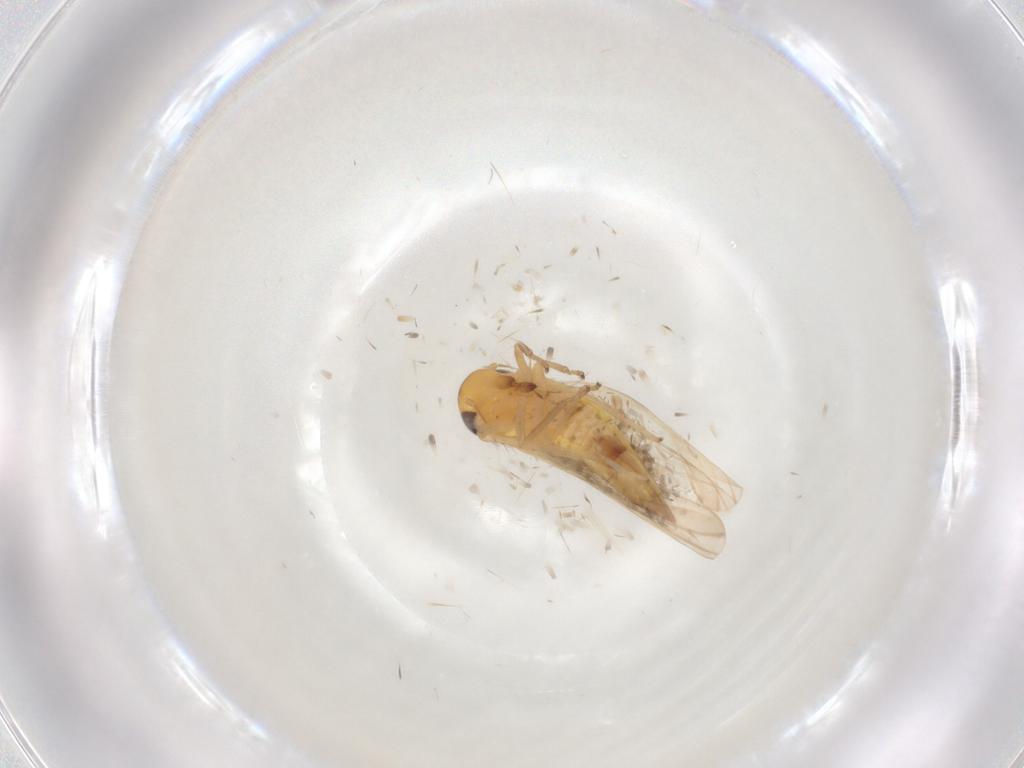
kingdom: Animalia
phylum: Arthropoda
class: Insecta
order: Hemiptera
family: Cicadellidae
